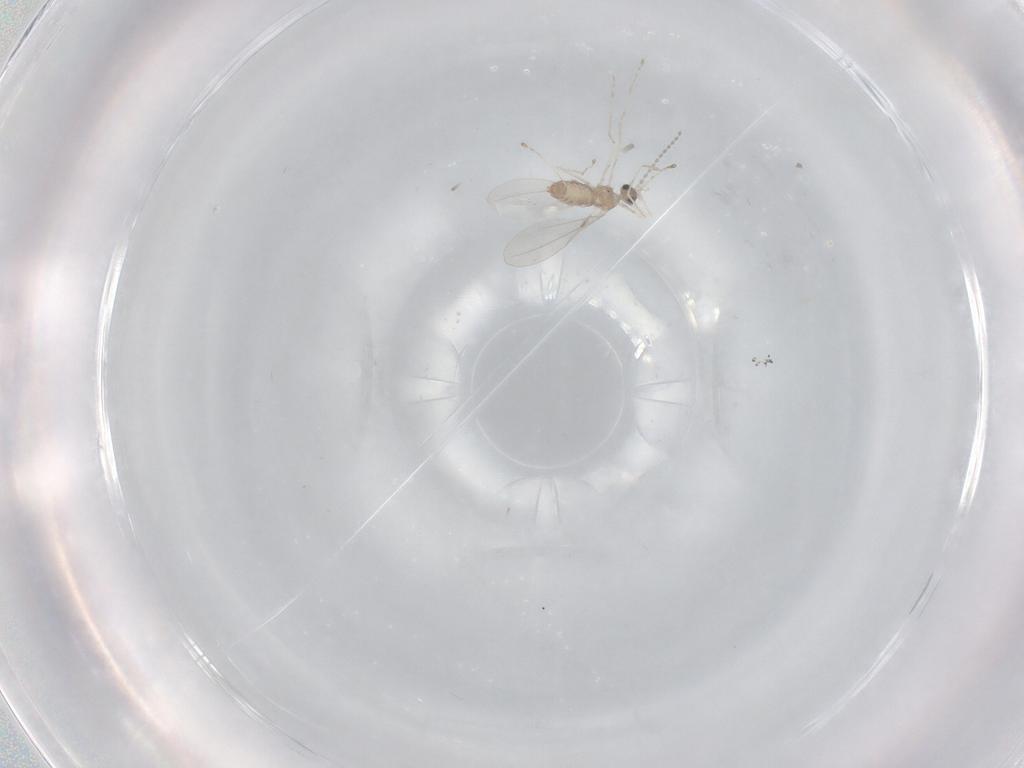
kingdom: Animalia
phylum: Arthropoda
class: Insecta
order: Diptera
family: Cecidomyiidae
